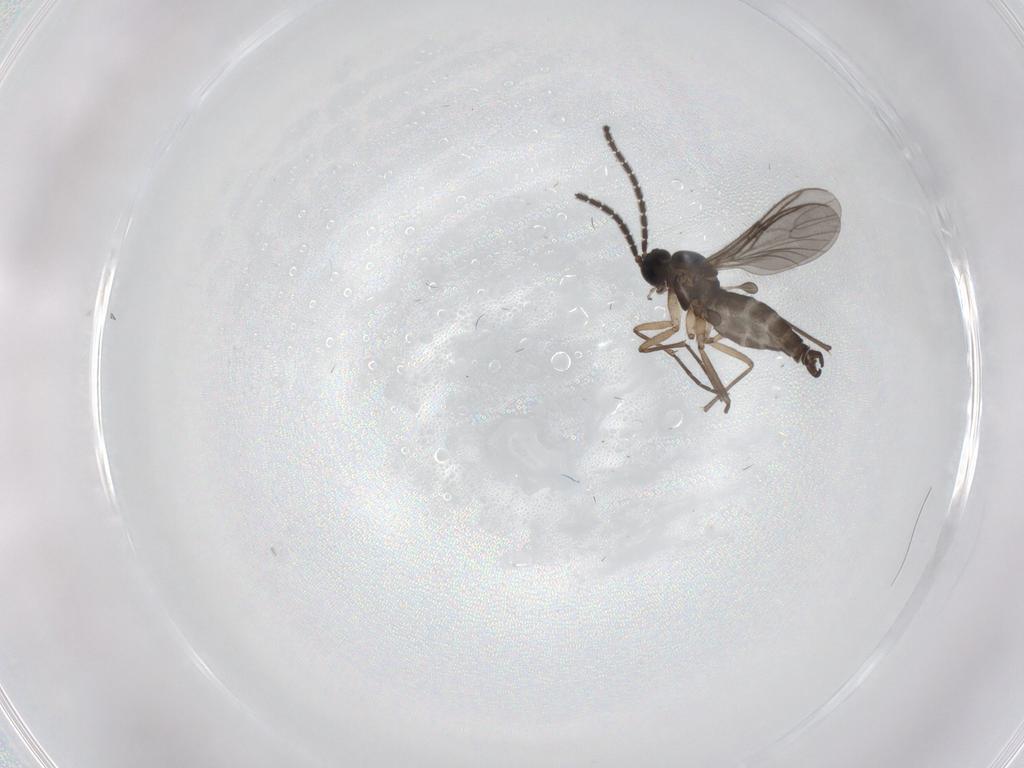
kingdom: Animalia
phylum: Arthropoda
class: Insecta
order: Diptera
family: Sciaridae
